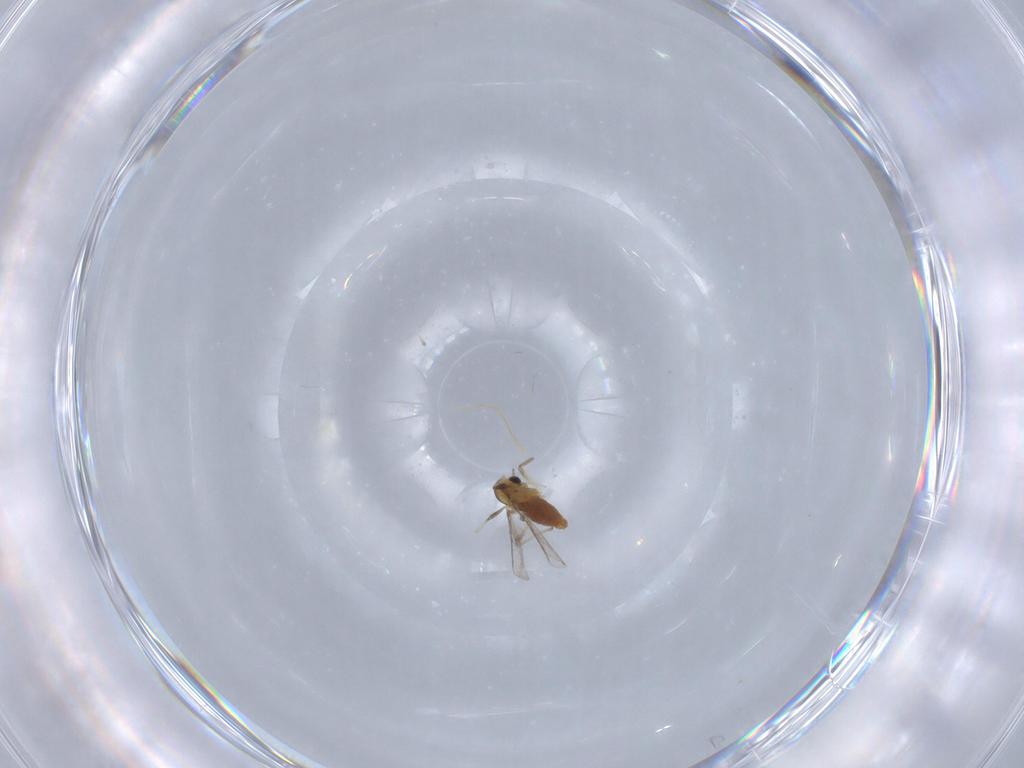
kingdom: Animalia
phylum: Arthropoda
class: Insecta
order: Diptera
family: Chironomidae
